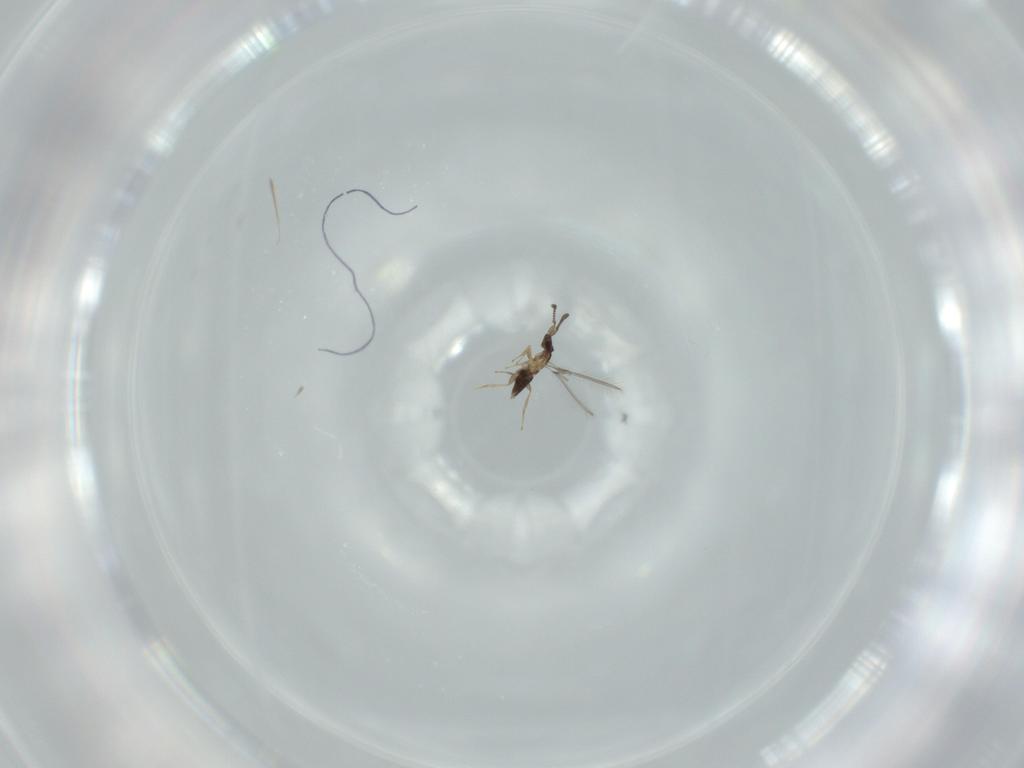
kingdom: Animalia
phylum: Arthropoda
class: Insecta
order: Hymenoptera
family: Mymaridae
